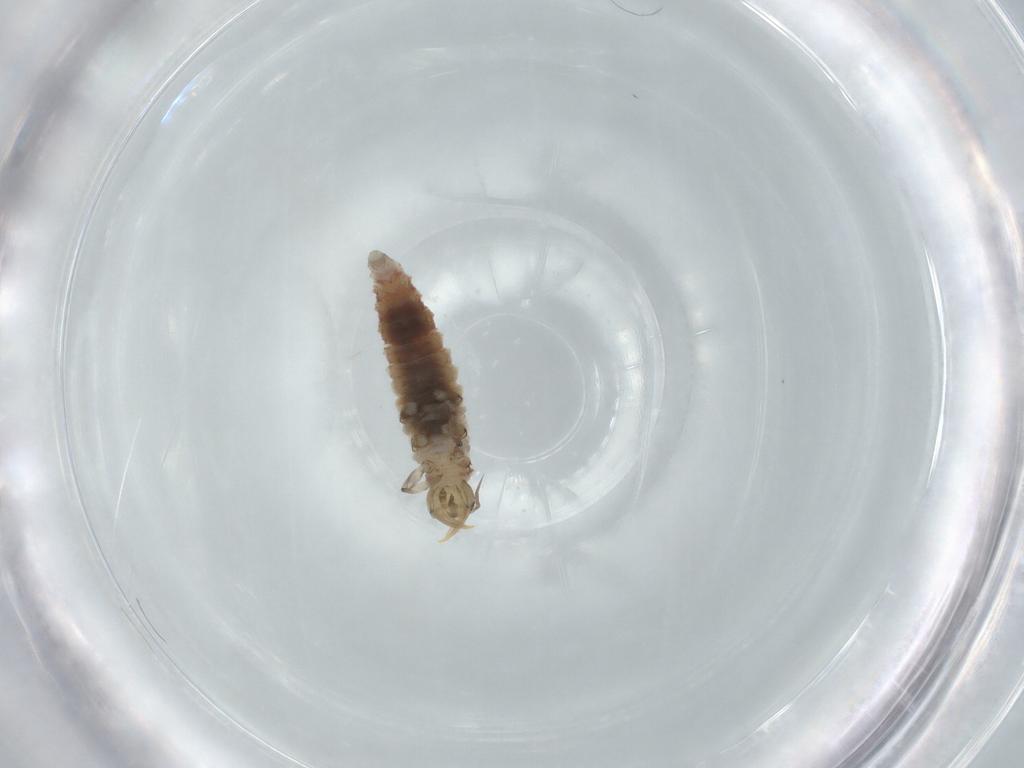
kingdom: Animalia
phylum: Arthropoda
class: Insecta
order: Neuroptera
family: Hemerobiidae
